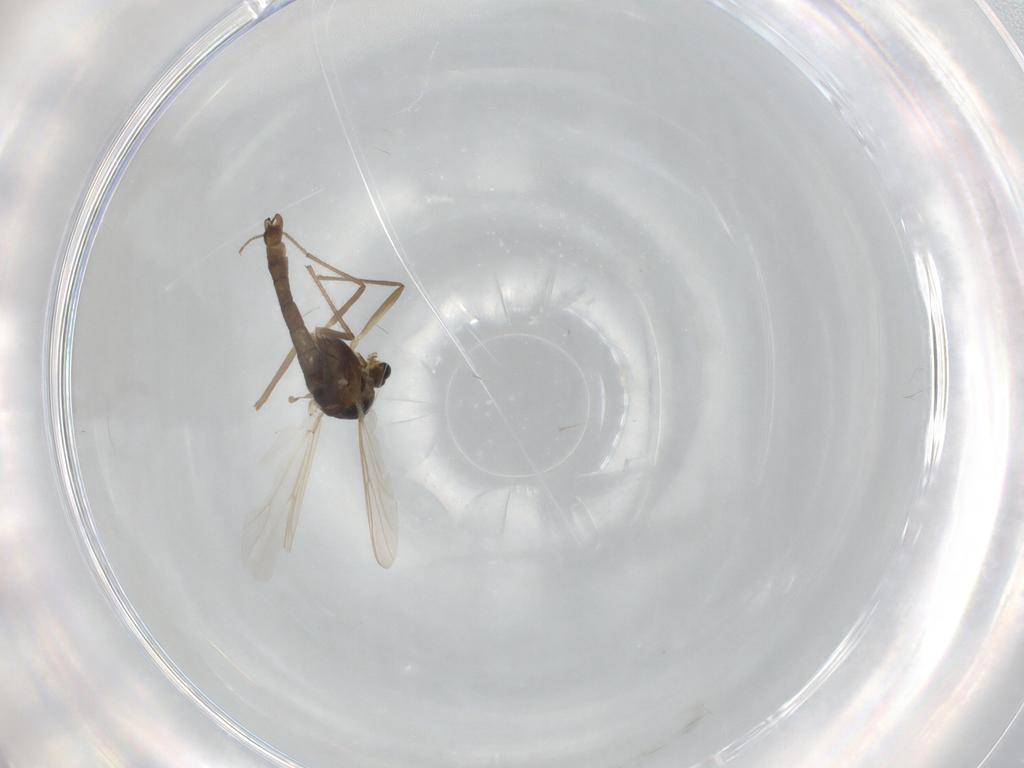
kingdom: Animalia
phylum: Arthropoda
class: Insecta
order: Diptera
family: Chironomidae
